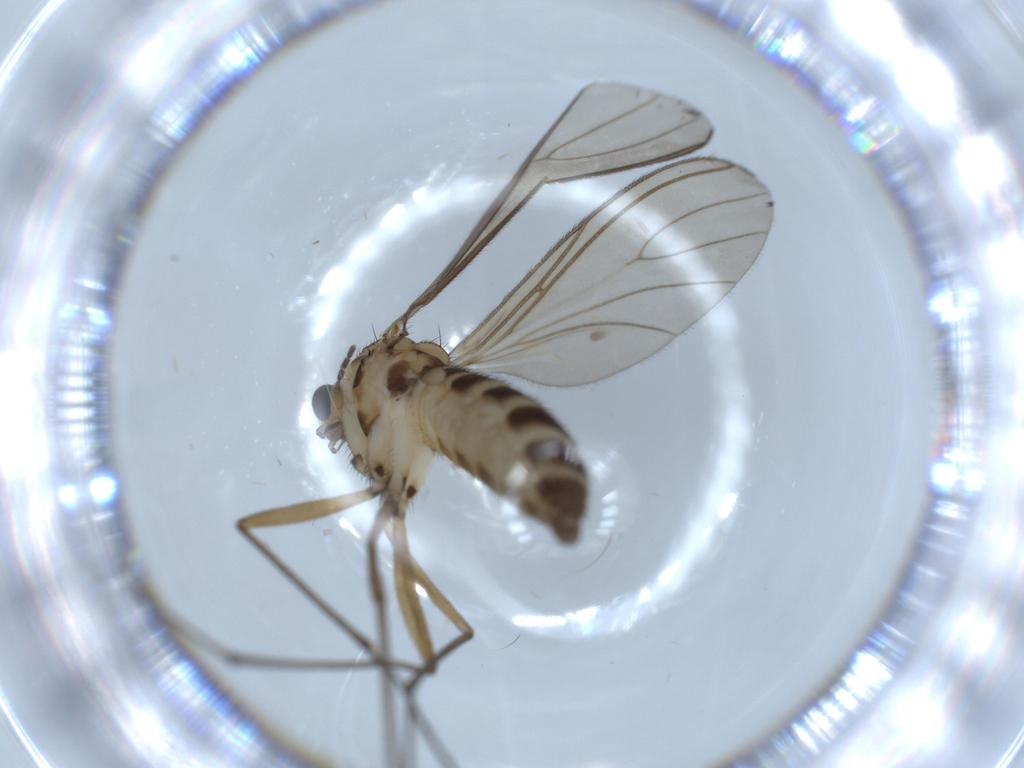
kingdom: Animalia
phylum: Arthropoda
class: Insecta
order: Diptera
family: Sciaridae
